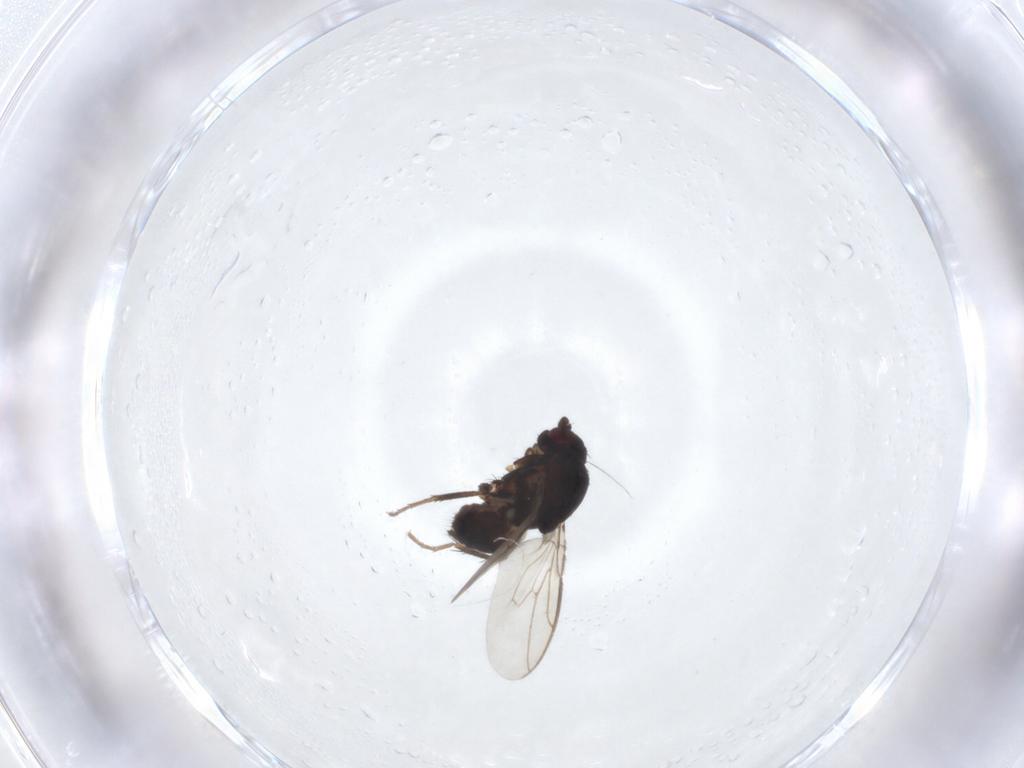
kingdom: Animalia
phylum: Arthropoda
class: Insecta
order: Diptera
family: Sphaeroceridae
